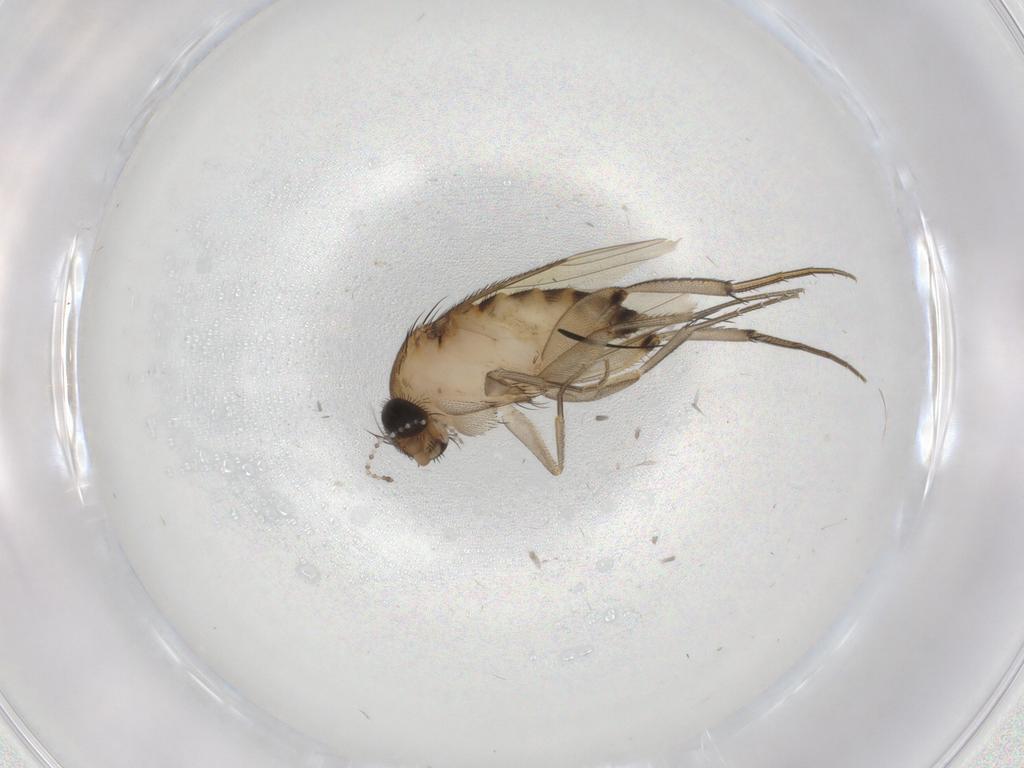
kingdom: Animalia
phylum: Arthropoda
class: Insecta
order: Diptera
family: Phoridae
